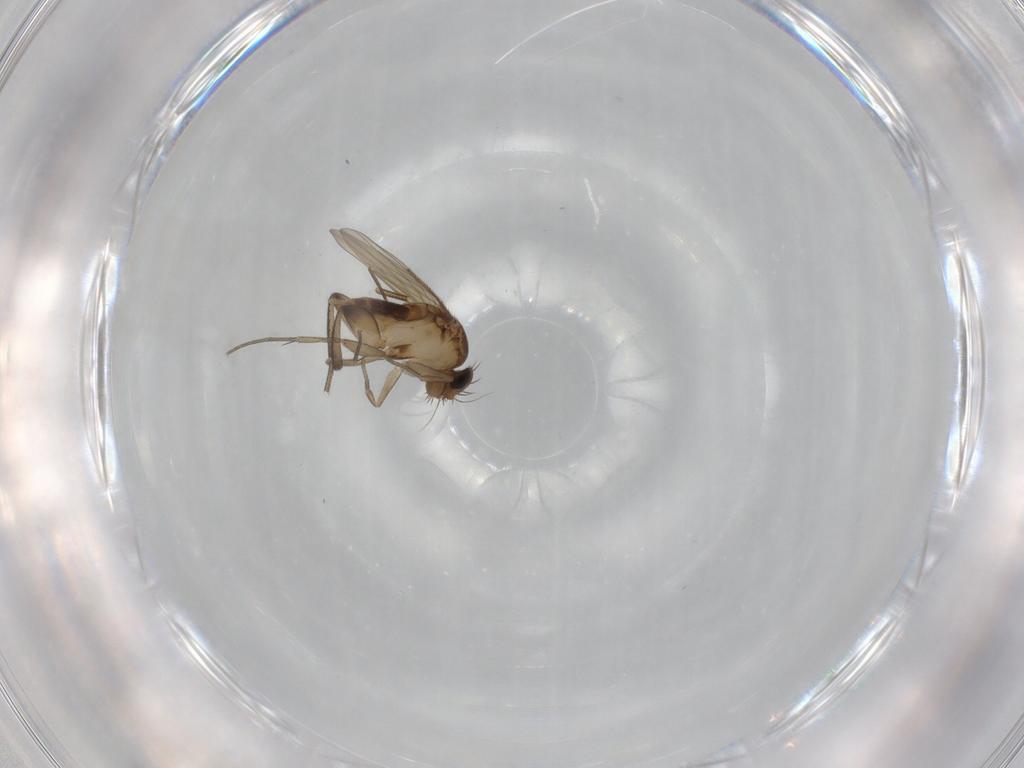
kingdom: Animalia
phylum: Arthropoda
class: Insecta
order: Diptera
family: Phoridae
